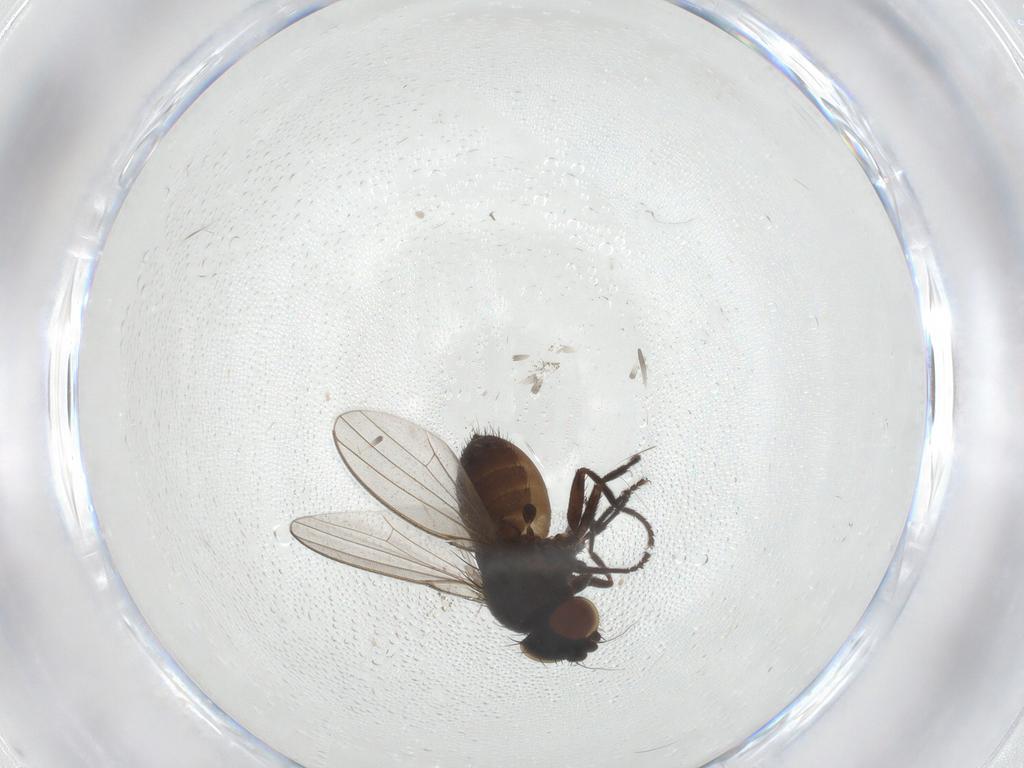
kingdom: Animalia
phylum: Arthropoda
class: Insecta
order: Diptera
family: Milichiidae
